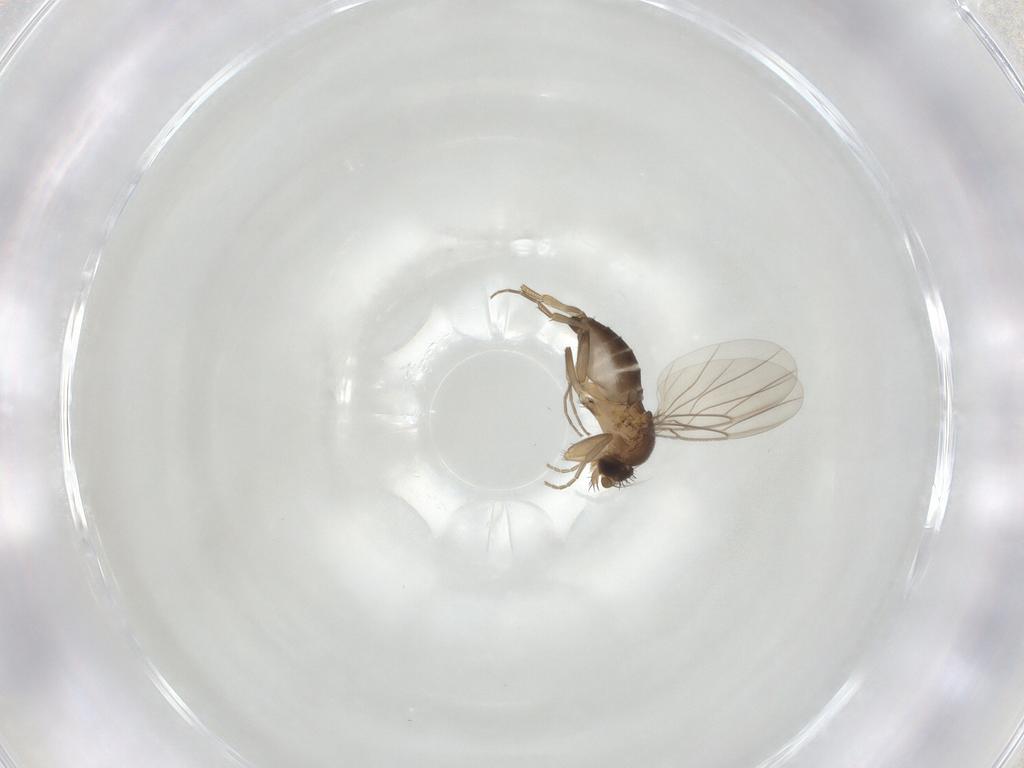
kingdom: Animalia
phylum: Arthropoda
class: Insecta
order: Diptera
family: Phoridae
